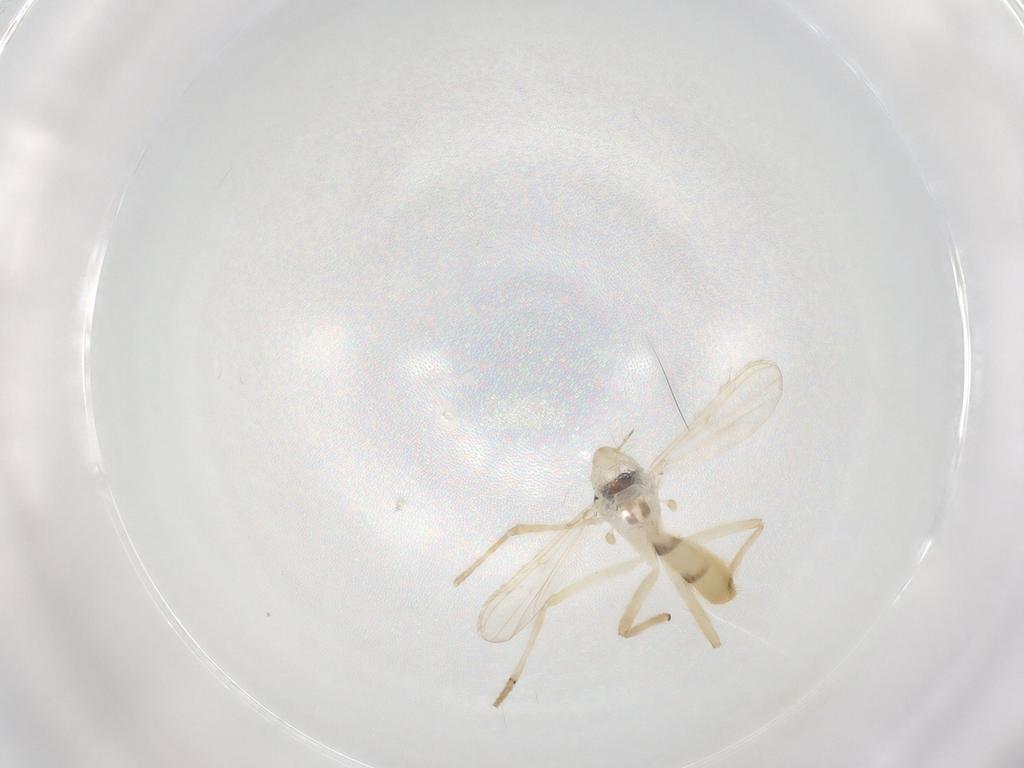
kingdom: Animalia
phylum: Arthropoda
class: Insecta
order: Diptera
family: Chironomidae
